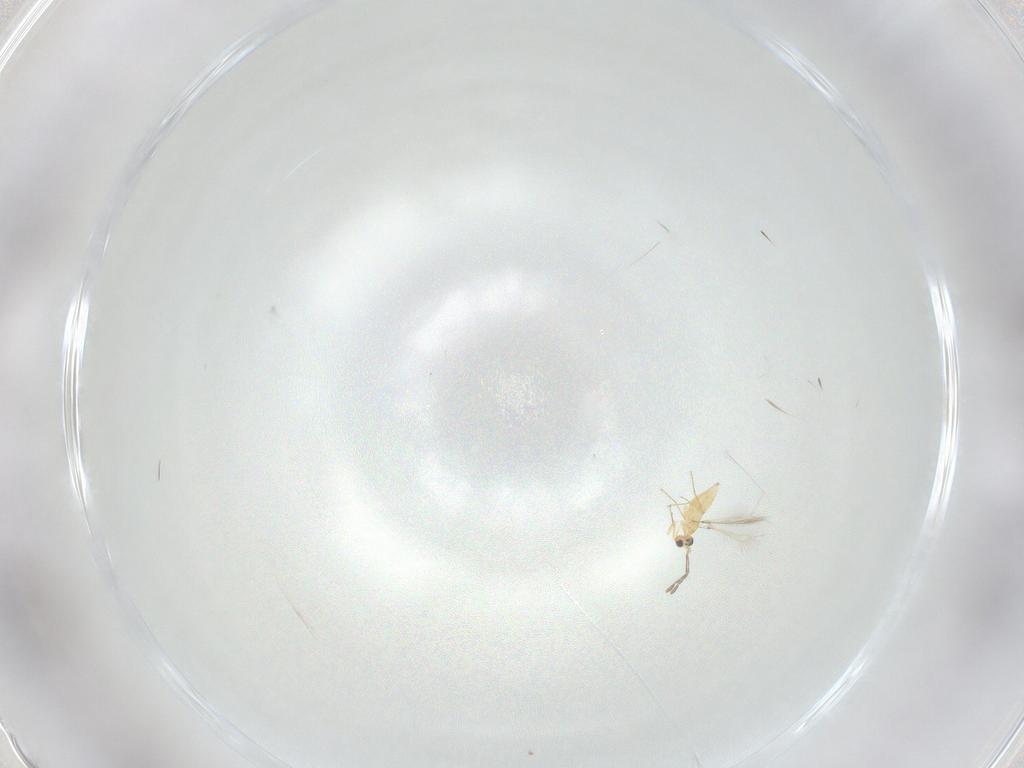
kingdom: Animalia
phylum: Arthropoda
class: Insecta
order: Hymenoptera
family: Mymaridae
